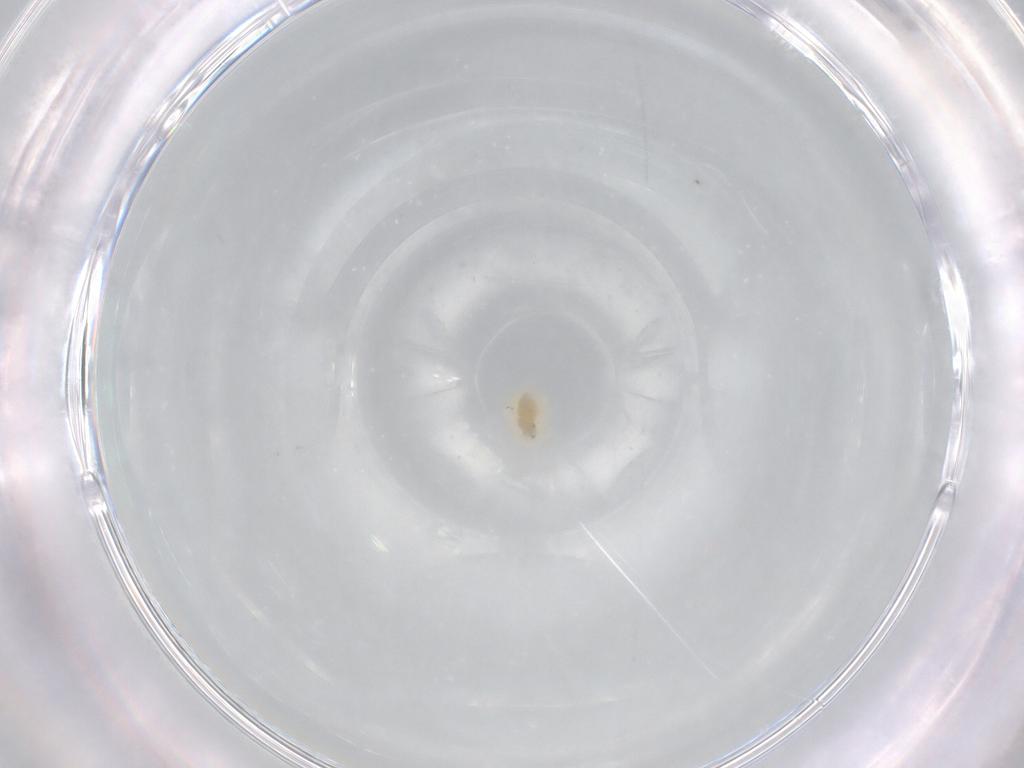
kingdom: Animalia
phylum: Arthropoda
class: Arachnida
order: Trombidiformes
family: Eupodidae
